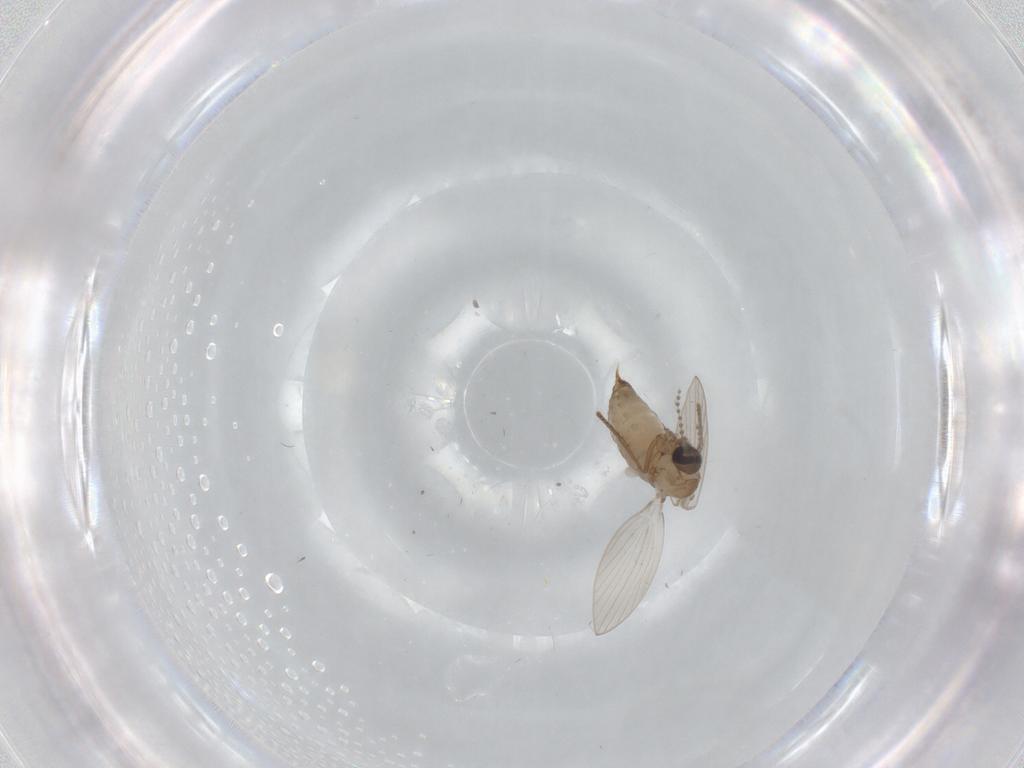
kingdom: Animalia
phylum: Arthropoda
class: Insecta
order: Diptera
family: Psychodidae
